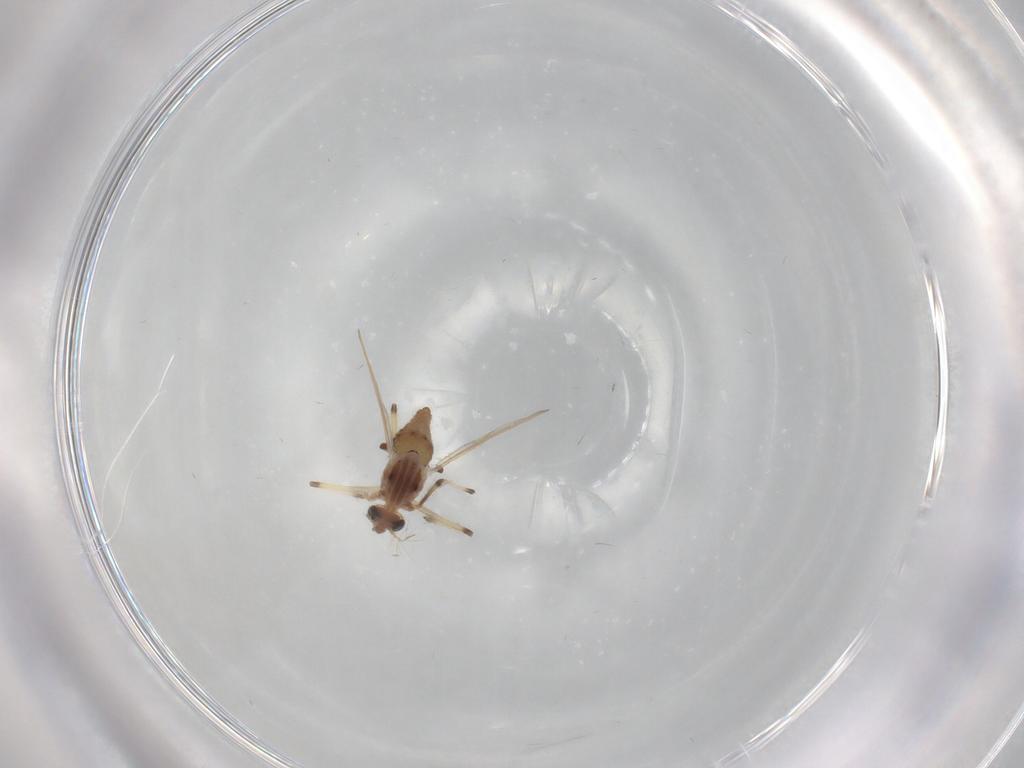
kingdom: Animalia
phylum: Arthropoda
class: Insecta
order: Diptera
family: Chironomidae
